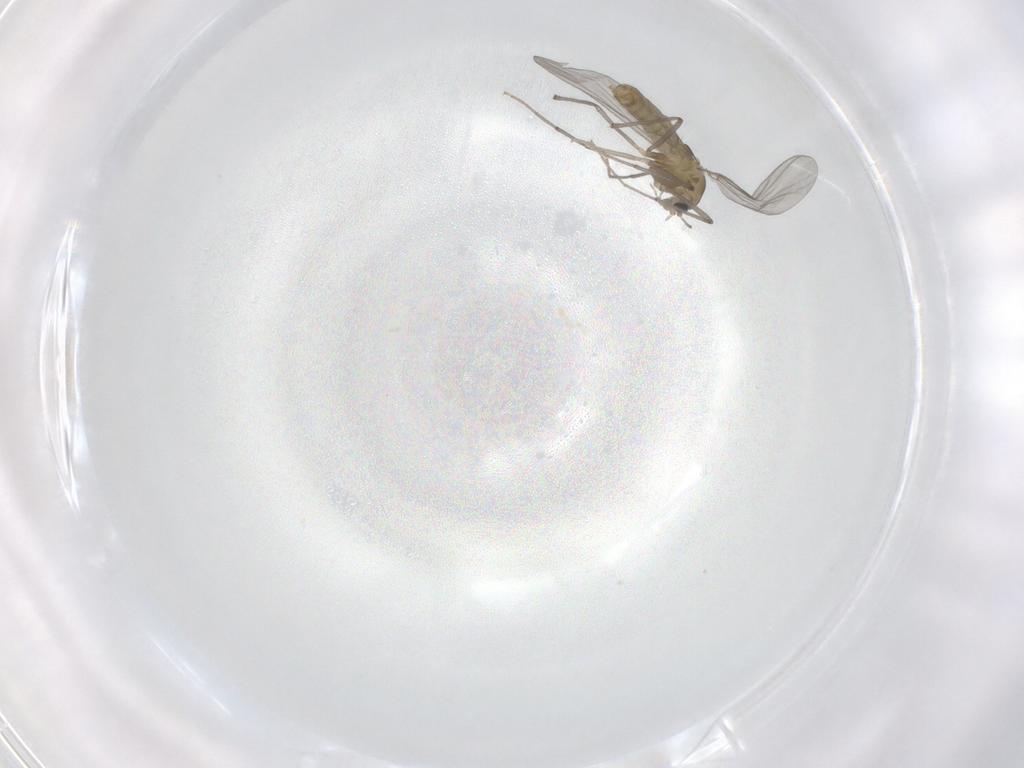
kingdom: Animalia
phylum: Arthropoda
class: Insecta
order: Diptera
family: Chironomidae
